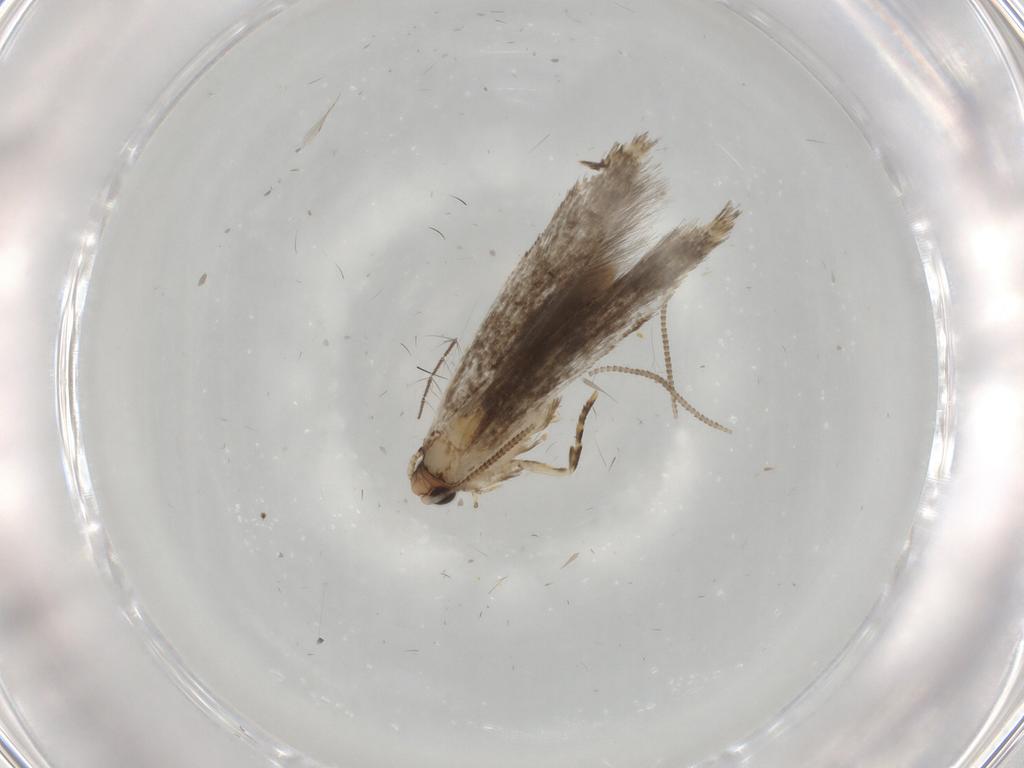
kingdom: Animalia
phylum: Arthropoda
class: Insecta
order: Lepidoptera
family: Tineidae
